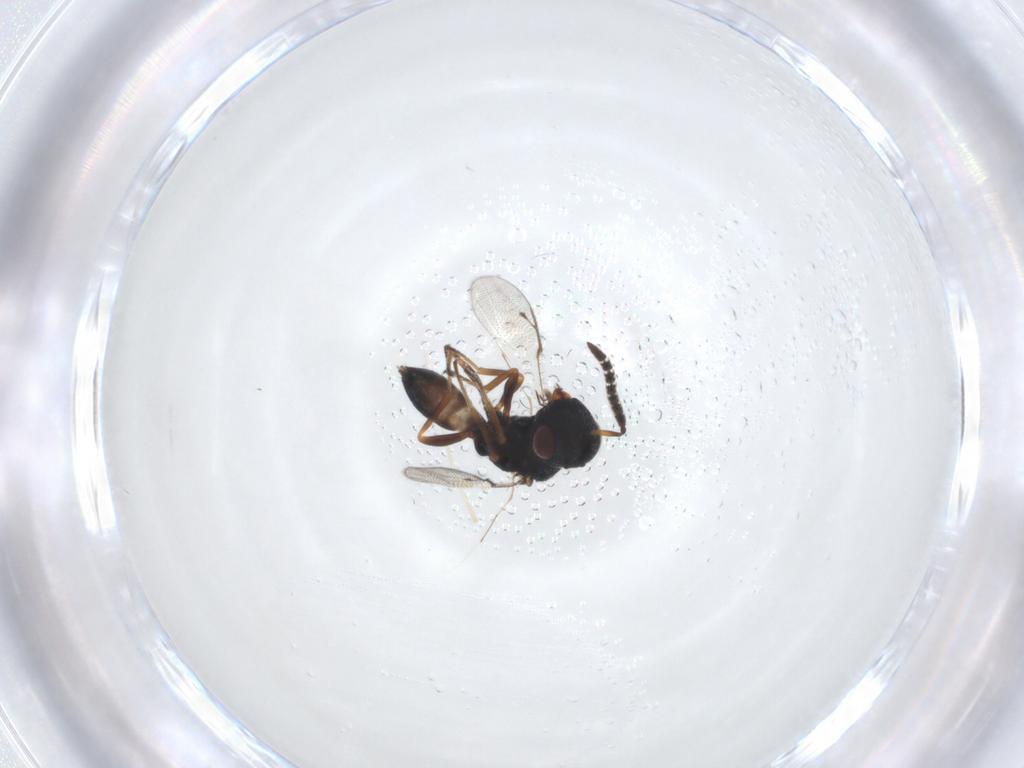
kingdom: Animalia
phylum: Arthropoda
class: Insecta
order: Hymenoptera
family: Pteromalidae
